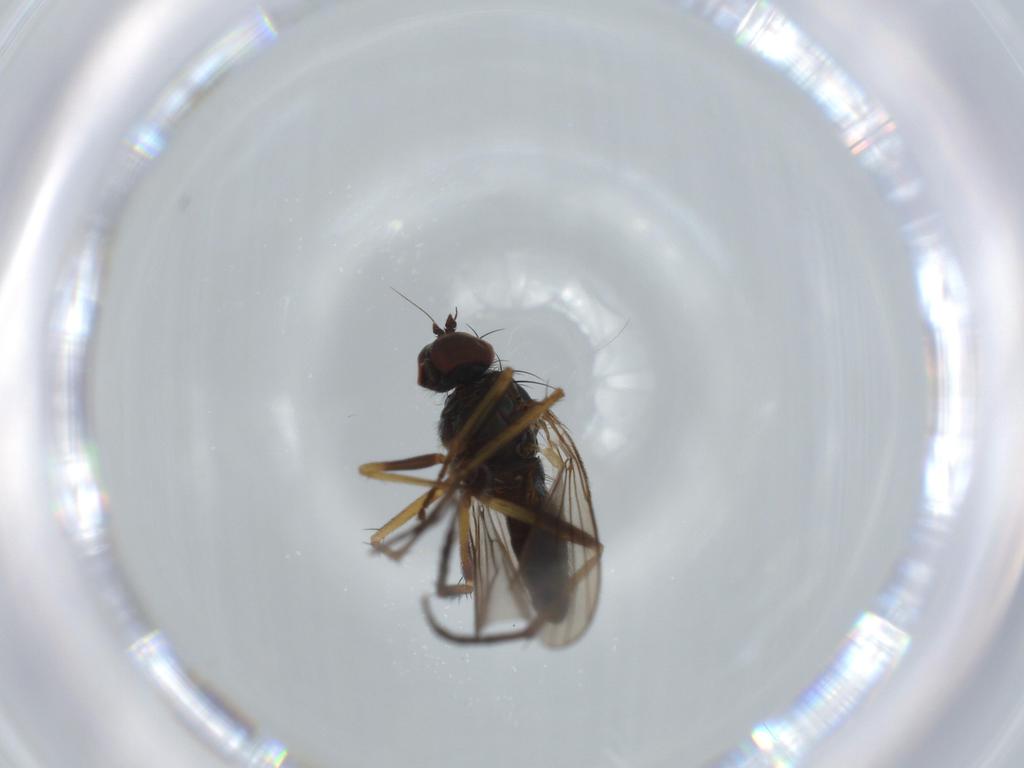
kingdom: Animalia
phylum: Arthropoda
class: Insecta
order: Diptera
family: Dolichopodidae
